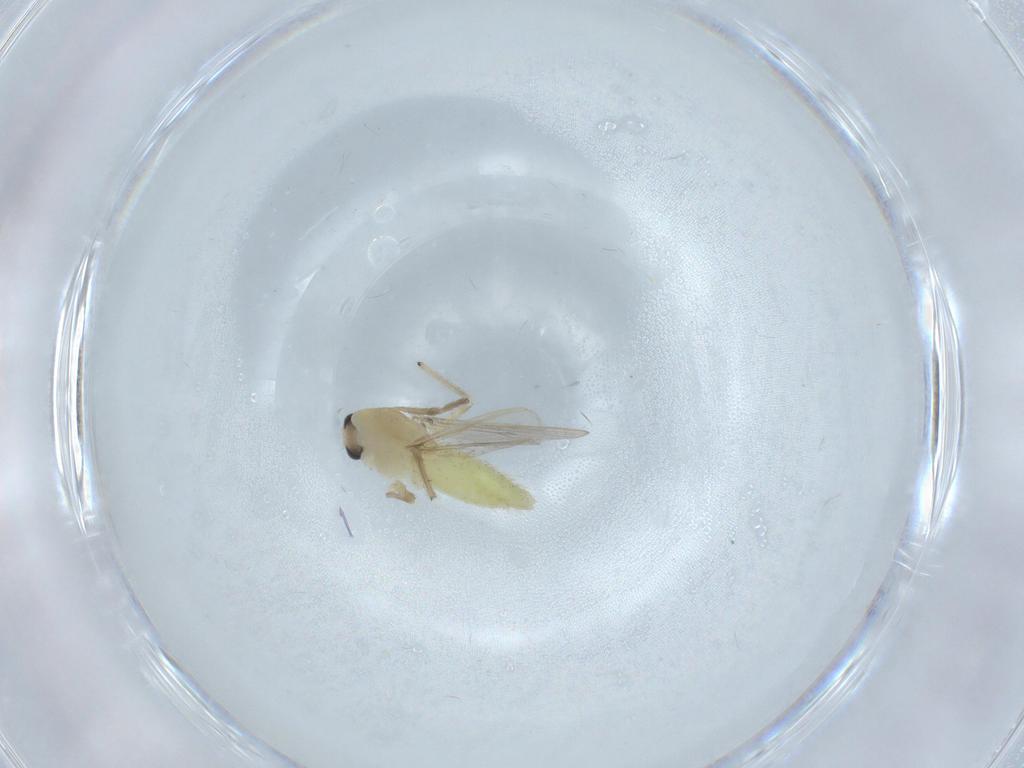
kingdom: Animalia
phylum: Arthropoda
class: Insecta
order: Diptera
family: Chironomidae
